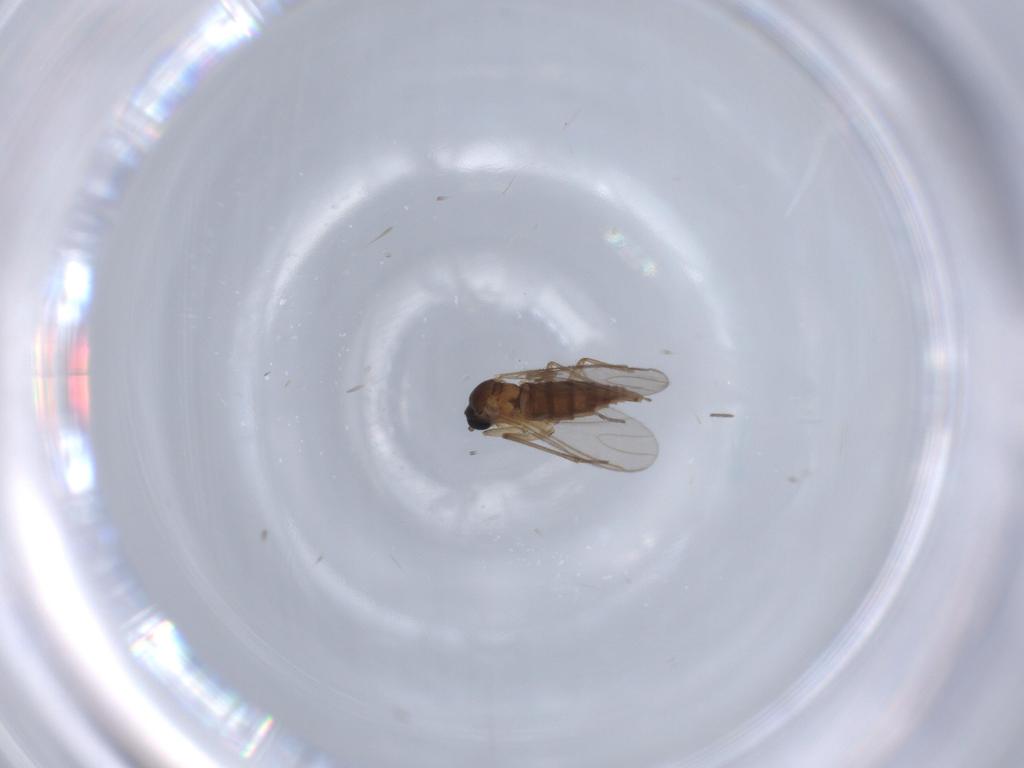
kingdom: Animalia
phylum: Arthropoda
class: Insecta
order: Diptera
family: Sciaridae
